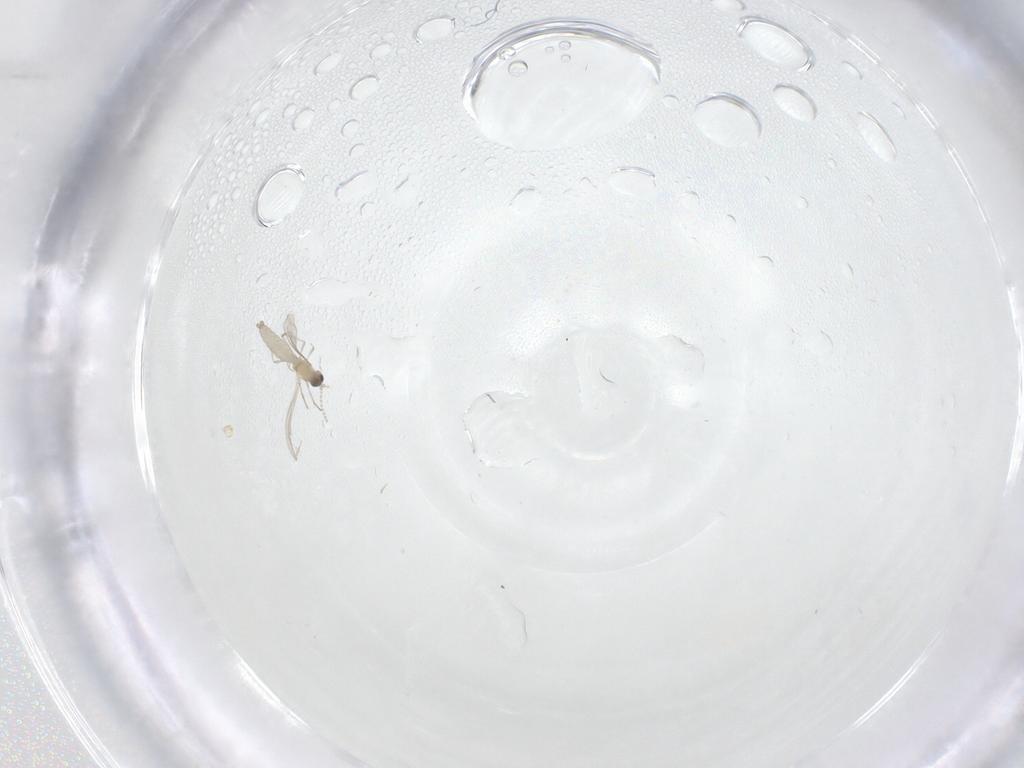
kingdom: Animalia
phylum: Arthropoda
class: Insecta
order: Diptera
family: Cecidomyiidae
